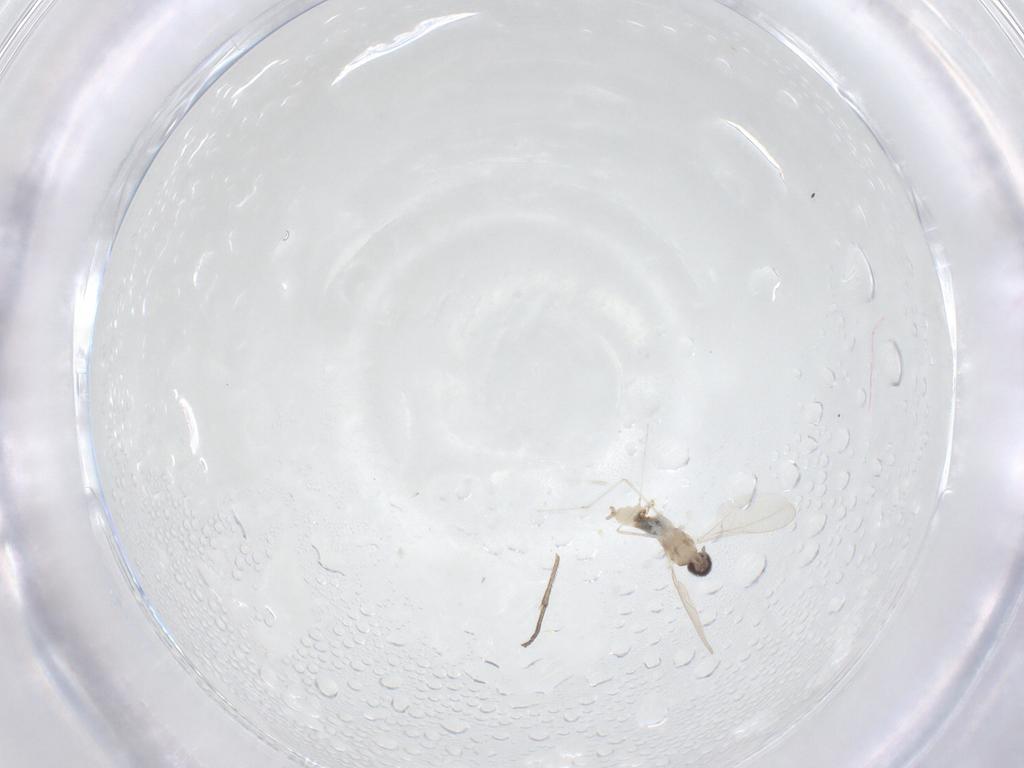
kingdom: Animalia
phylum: Arthropoda
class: Insecta
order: Diptera
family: Cecidomyiidae
